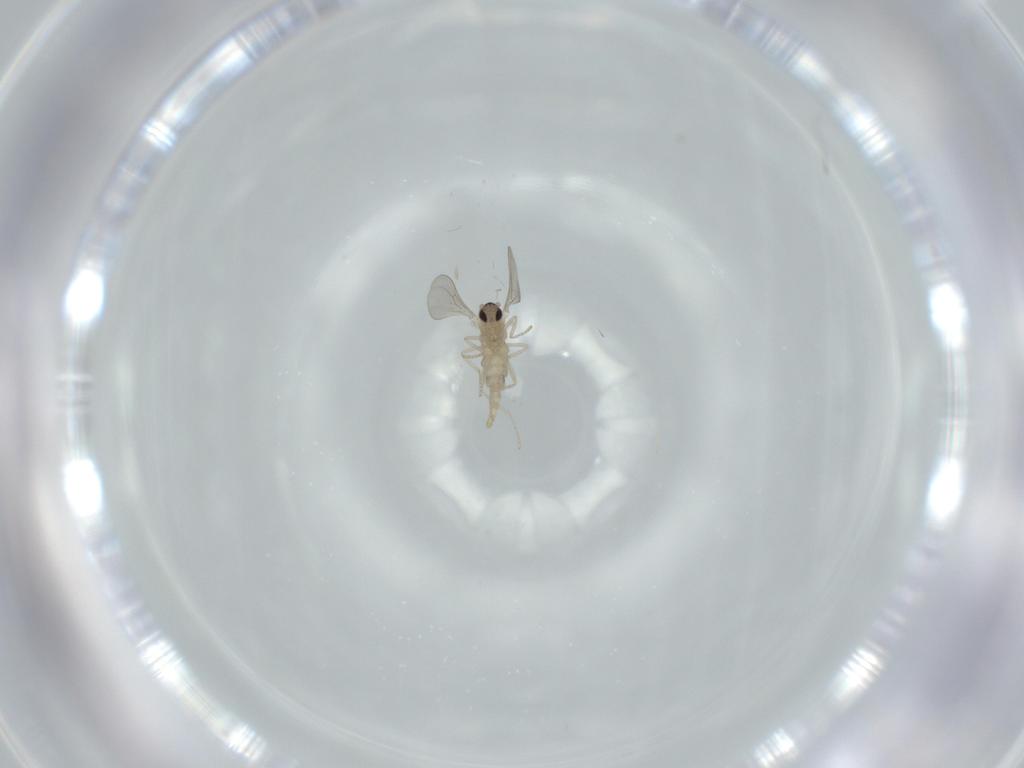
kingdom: Animalia
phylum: Arthropoda
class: Insecta
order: Diptera
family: Cecidomyiidae
